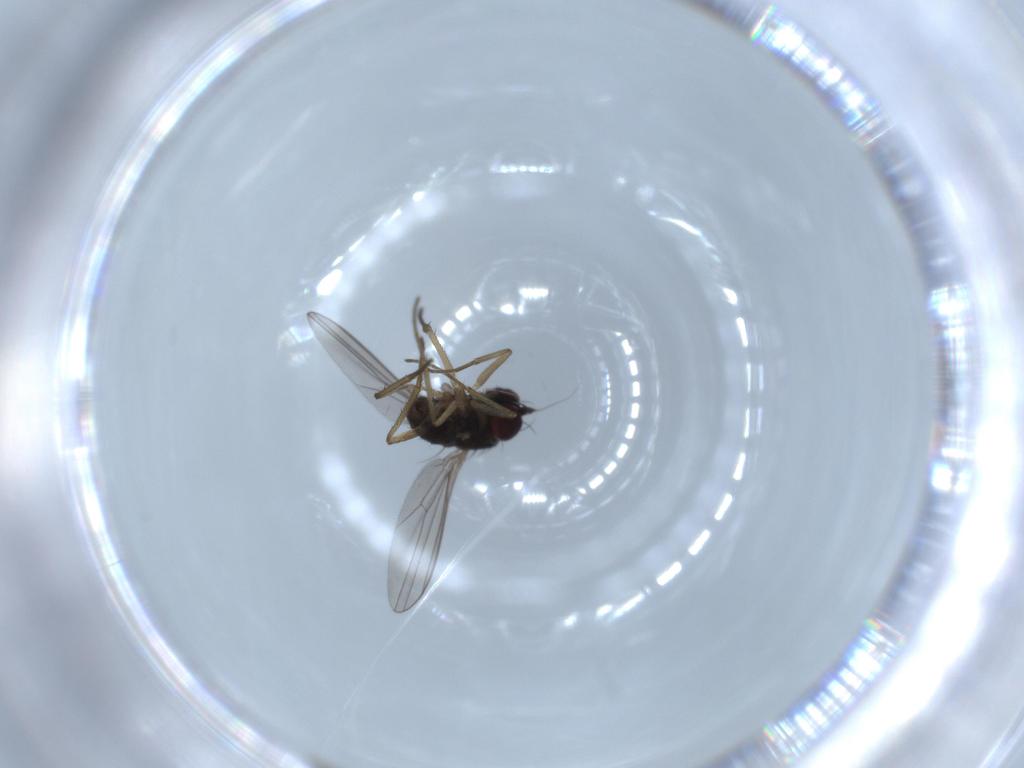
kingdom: Animalia
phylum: Arthropoda
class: Insecta
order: Diptera
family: Dolichopodidae
